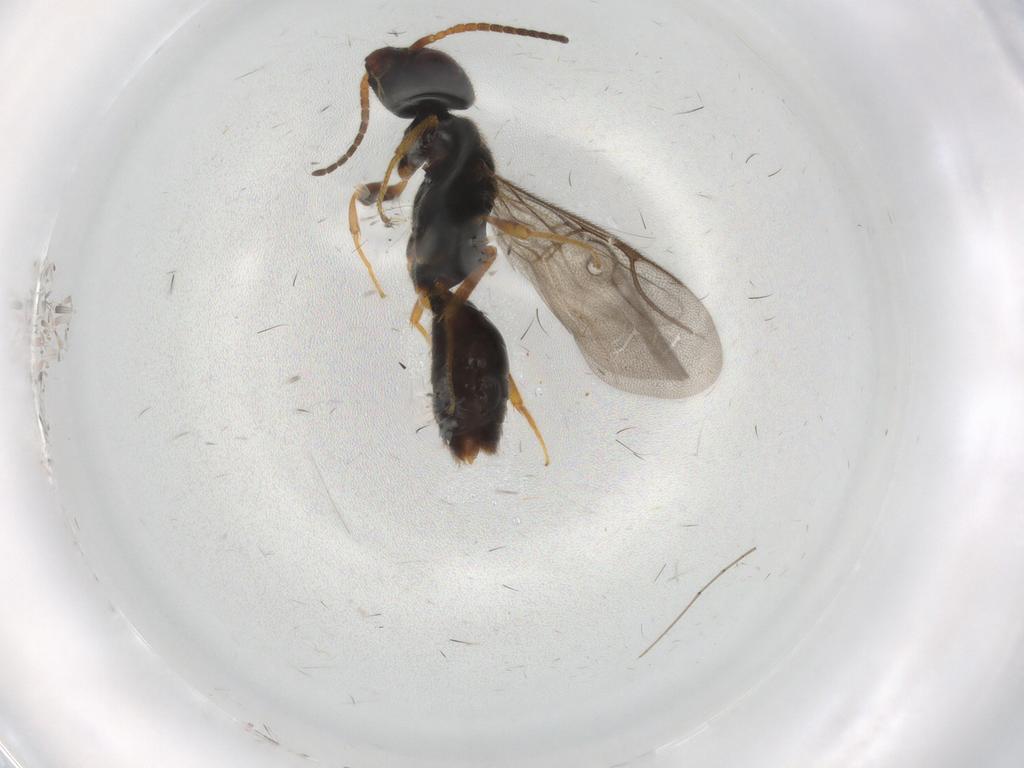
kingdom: Animalia
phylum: Arthropoda
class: Insecta
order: Hymenoptera
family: Bethylidae
